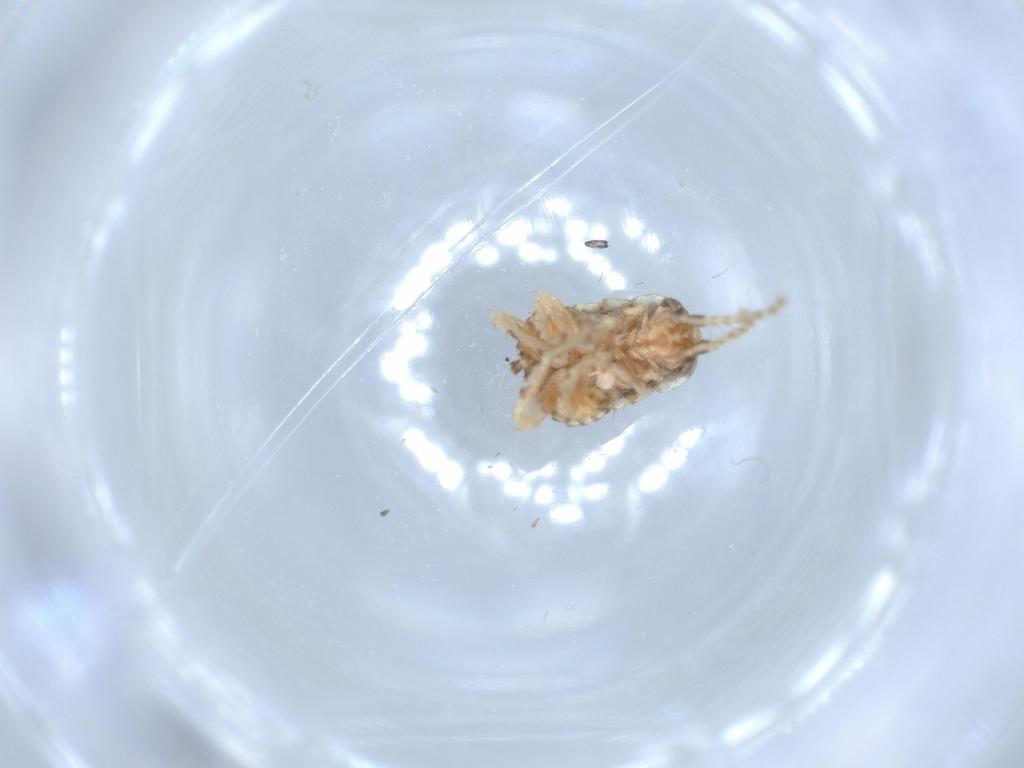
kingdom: Animalia
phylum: Arthropoda
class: Insecta
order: Blattodea
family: Ectobiidae
